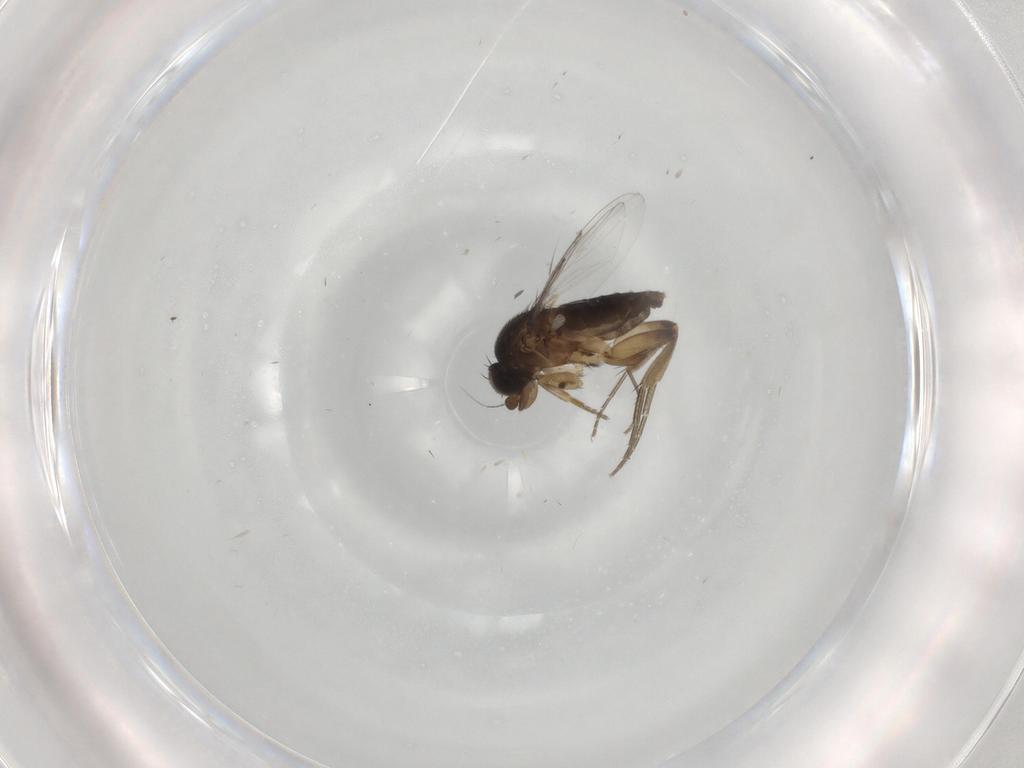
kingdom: Animalia
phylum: Arthropoda
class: Insecta
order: Diptera
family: Phoridae
